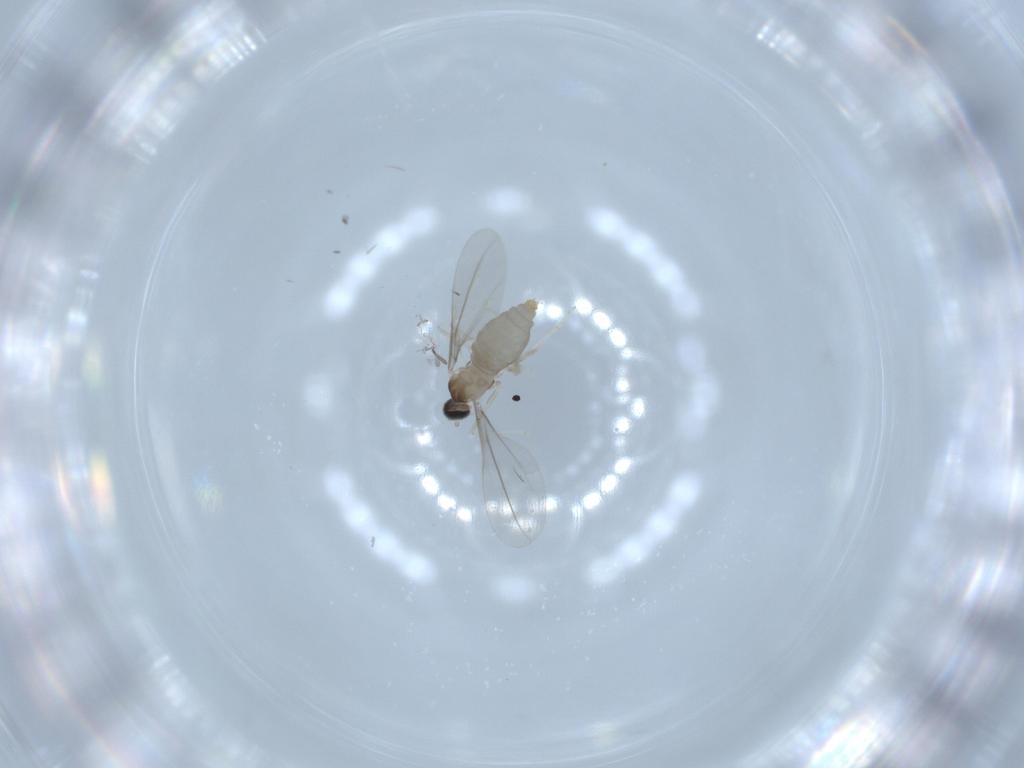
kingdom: Animalia
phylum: Arthropoda
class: Insecta
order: Diptera
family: Cecidomyiidae
